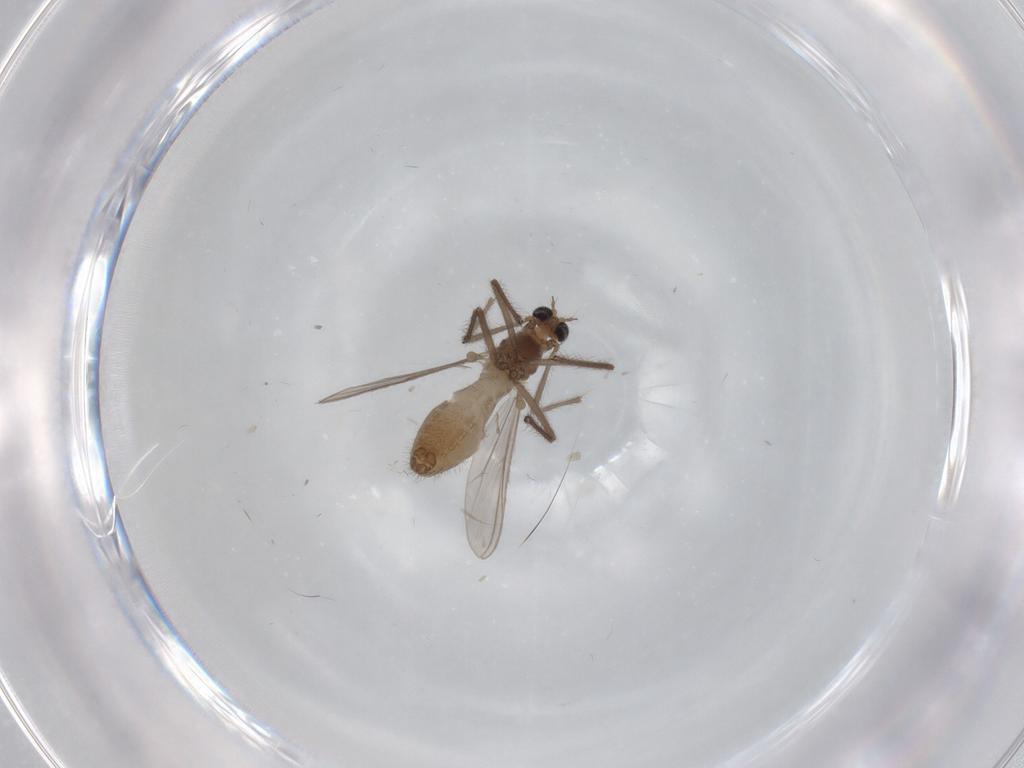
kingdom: Animalia
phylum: Arthropoda
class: Insecta
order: Diptera
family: Chironomidae
